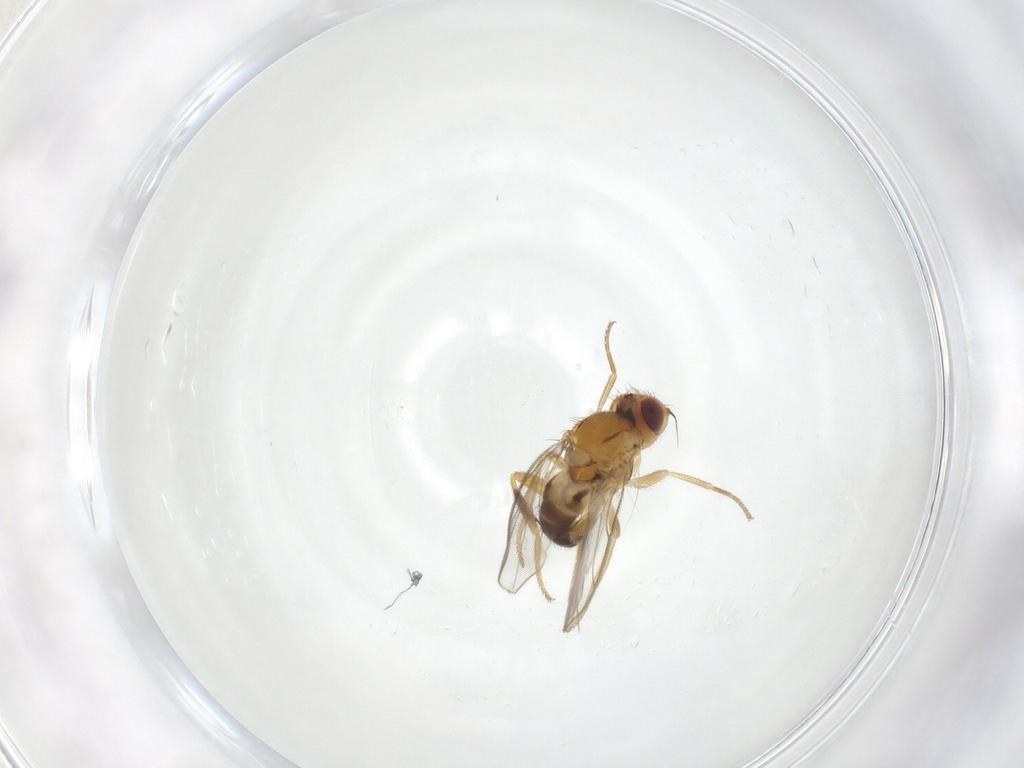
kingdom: Animalia
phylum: Arthropoda
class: Insecta
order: Diptera
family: Chloropidae
